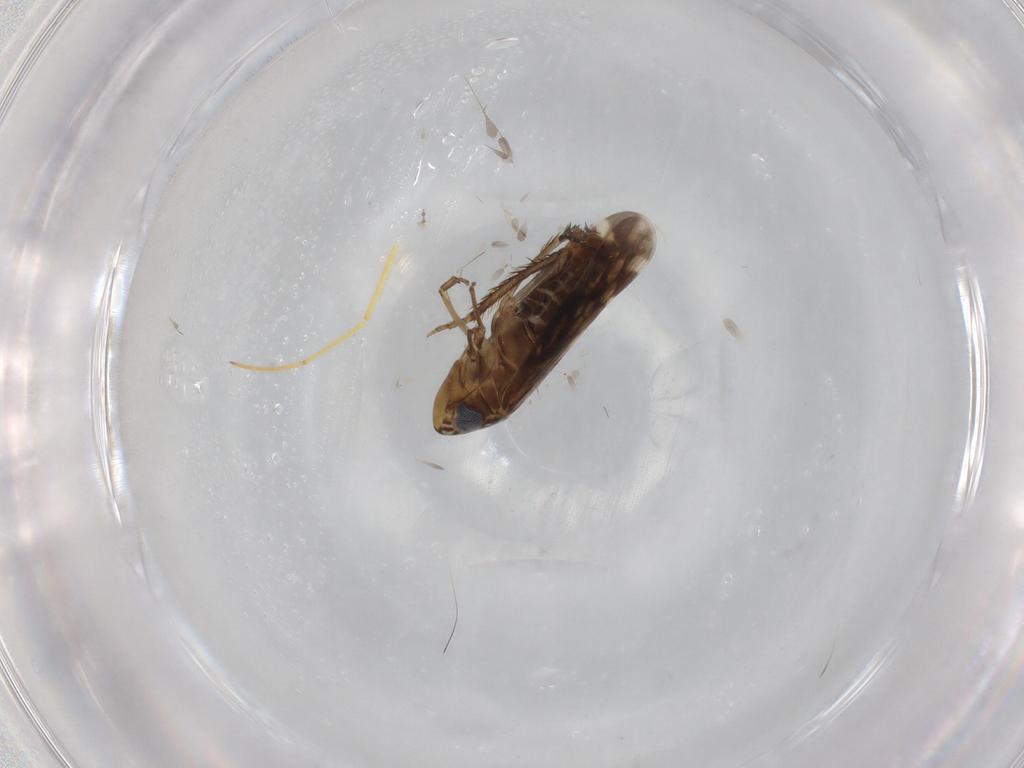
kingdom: Animalia
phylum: Arthropoda
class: Insecta
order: Hemiptera
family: Cicadellidae
